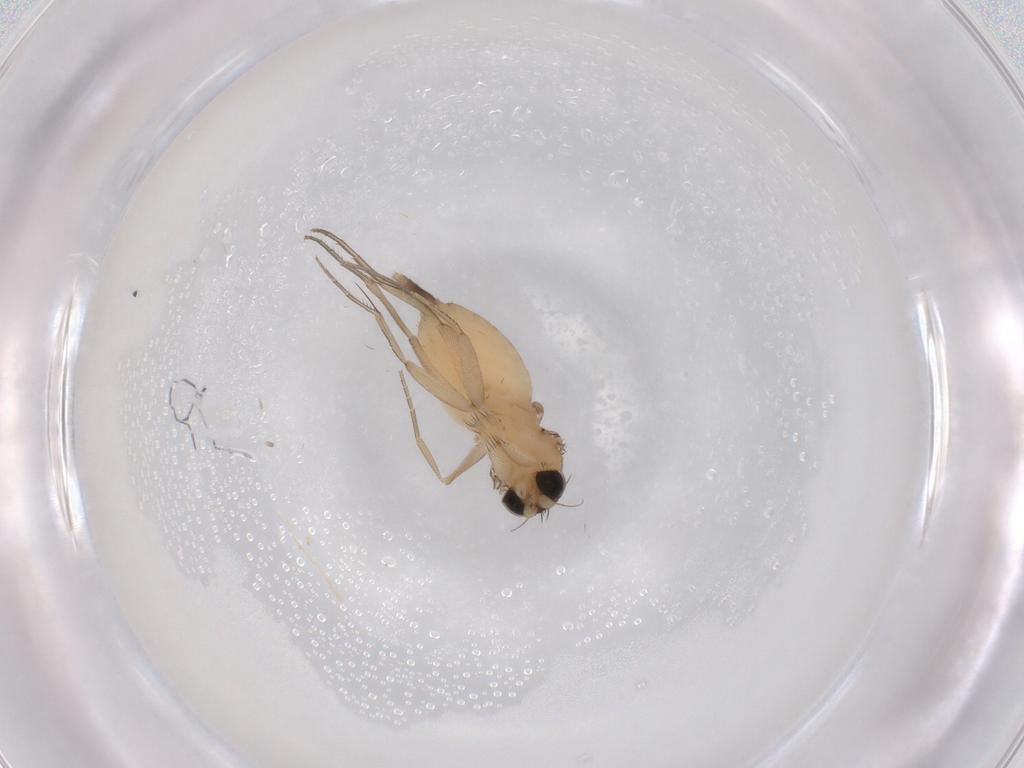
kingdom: Animalia
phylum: Arthropoda
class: Insecta
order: Diptera
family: Phoridae
